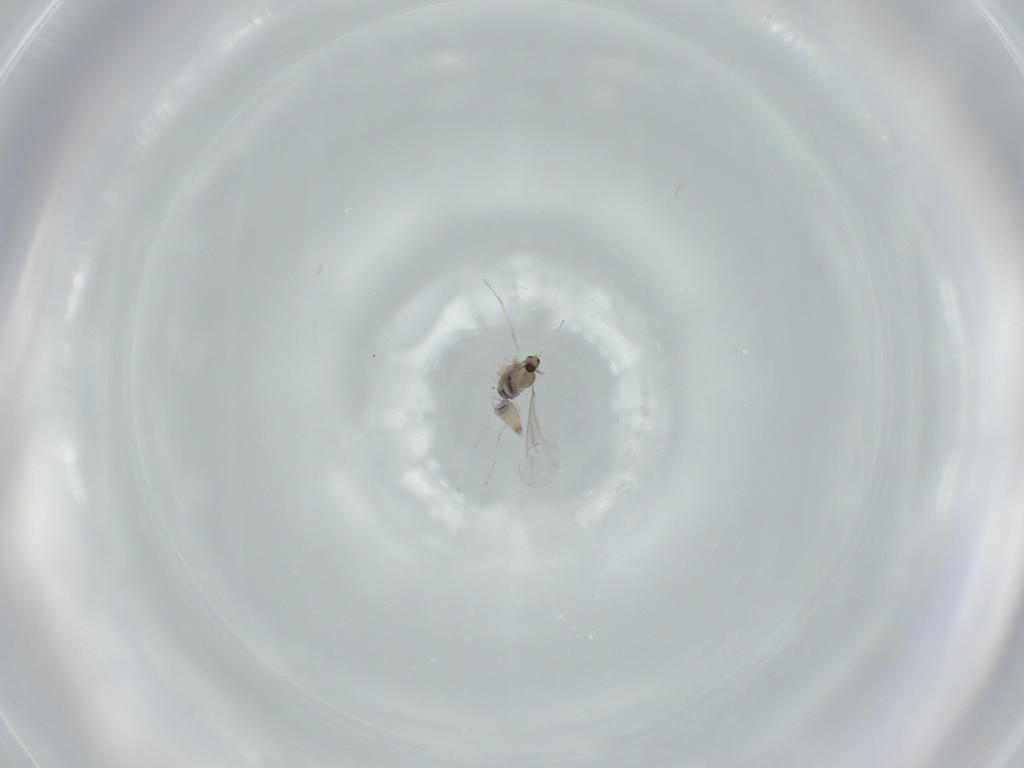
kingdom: Animalia
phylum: Arthropoda
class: Insecta
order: Diptera
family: Cecidomyiidae
